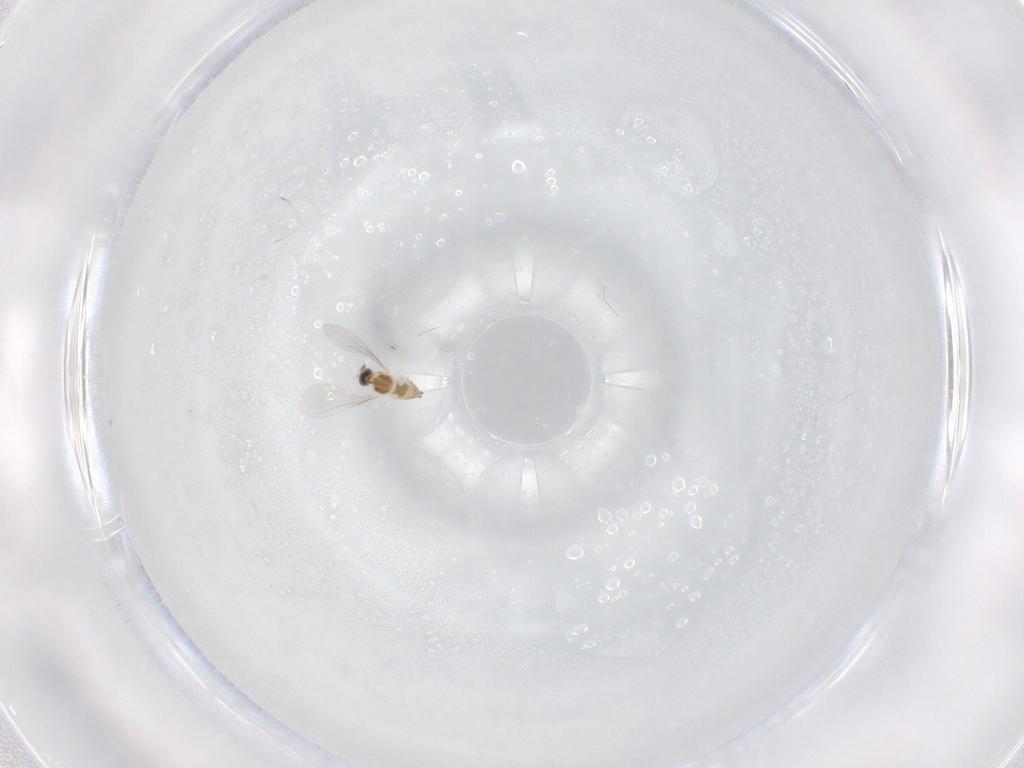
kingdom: Animalia
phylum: Arthropoda
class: Insecta
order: Diptera
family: Cecidomyiidae
